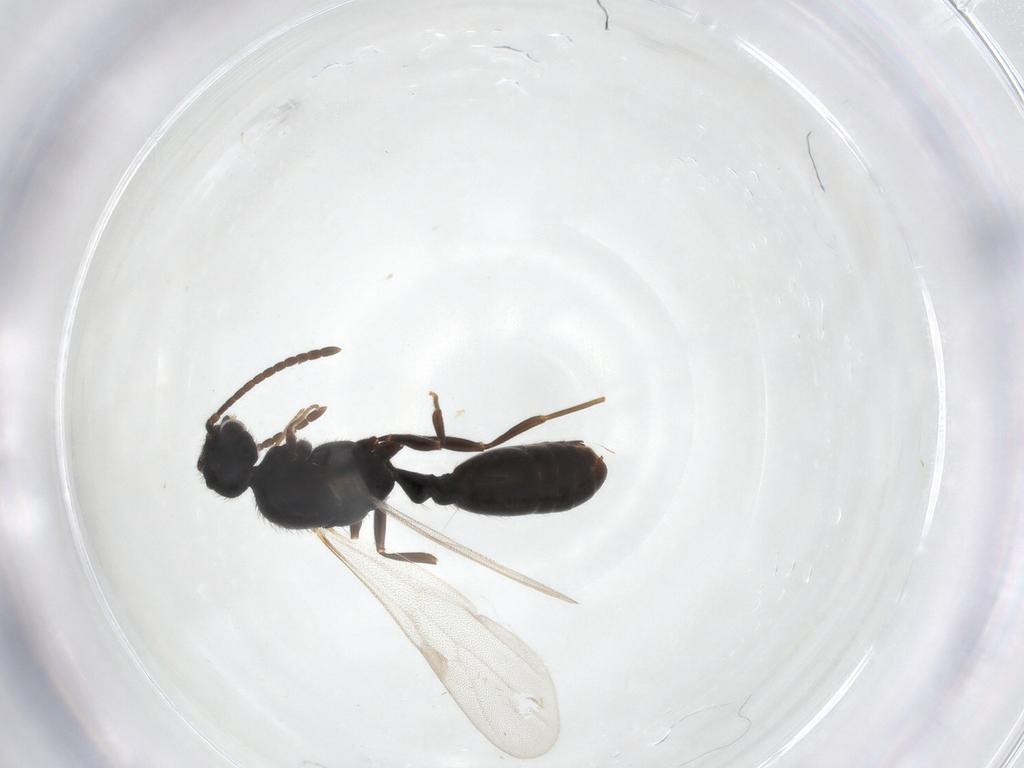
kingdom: Animalia
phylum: Arthropoda
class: Insecta
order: Hymenoptera
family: Formicidae
